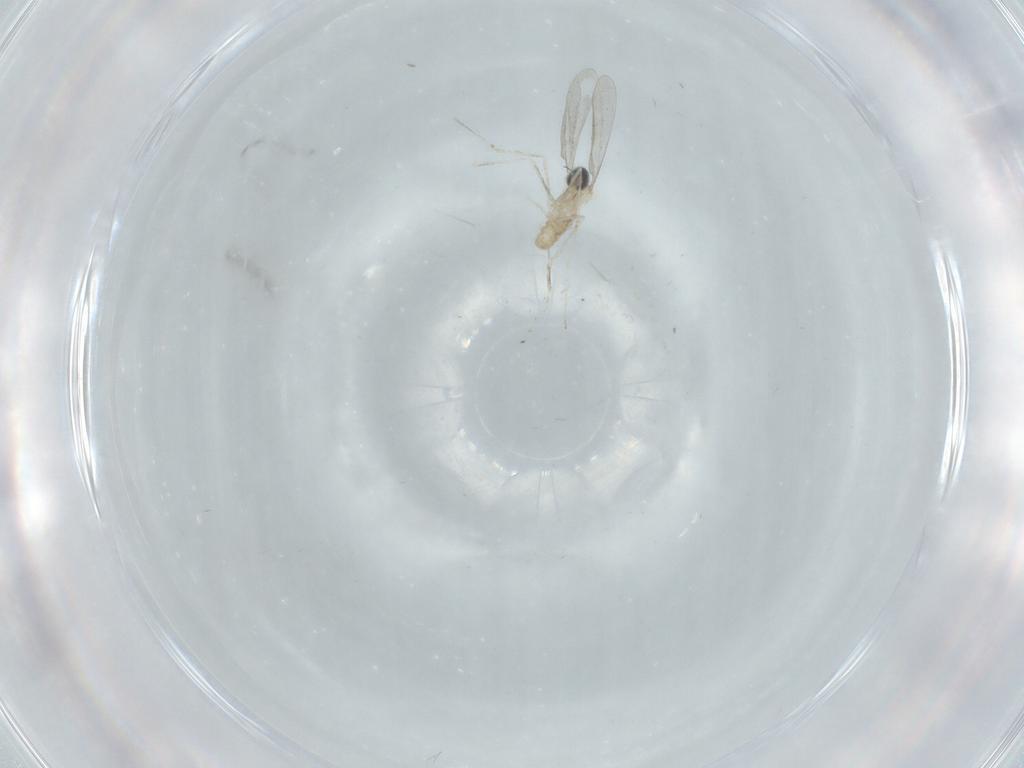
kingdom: Animalia
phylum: Arthropoda
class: Insecta
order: Diptera
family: Cecidomyiidae
